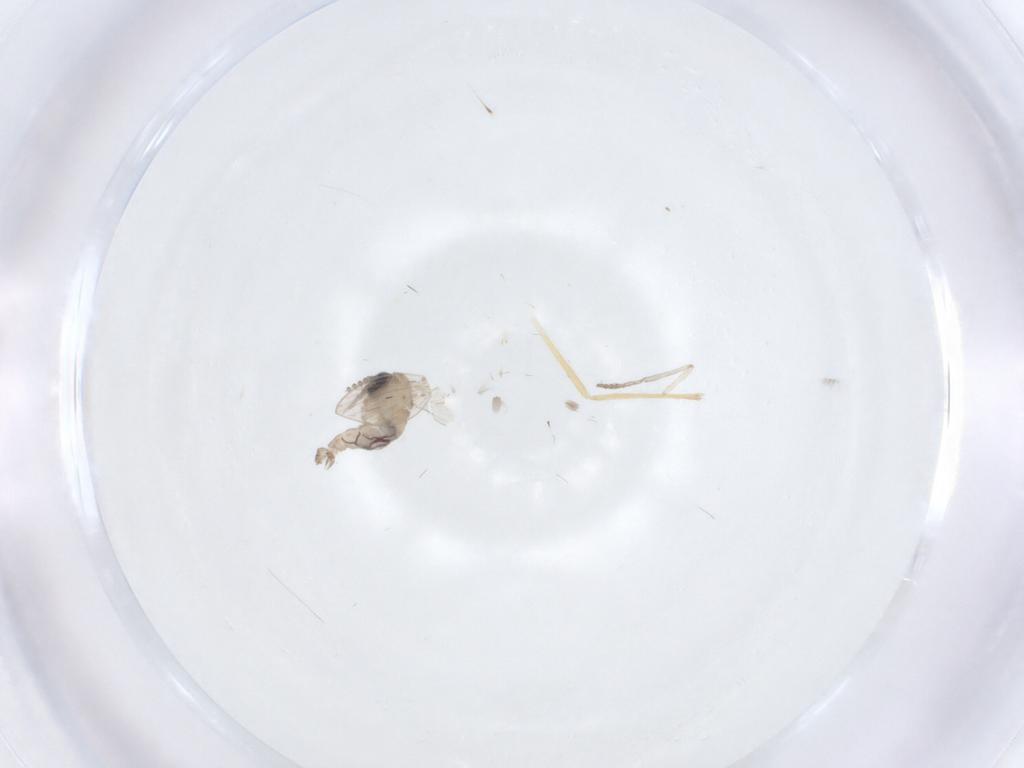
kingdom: Animalia
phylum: Arthropoda
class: Insecta
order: Diptera
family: Psychodidae
